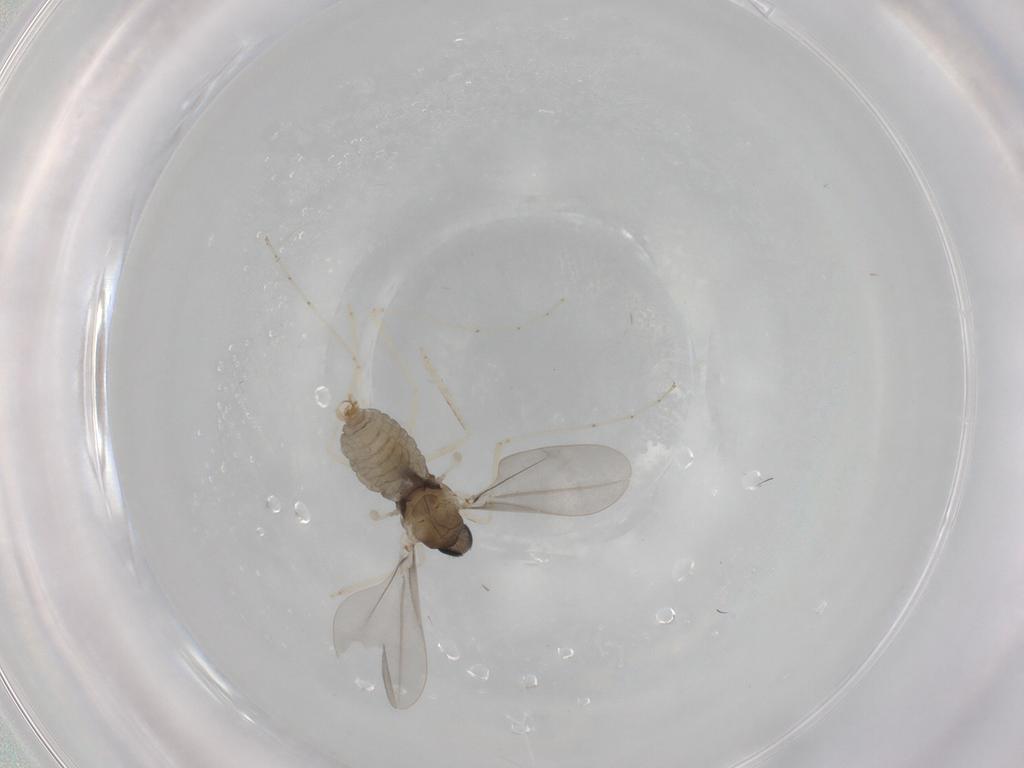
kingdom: Animalia
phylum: Arthropoda
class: Insecta
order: Diptera
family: Cecidomyiidae
